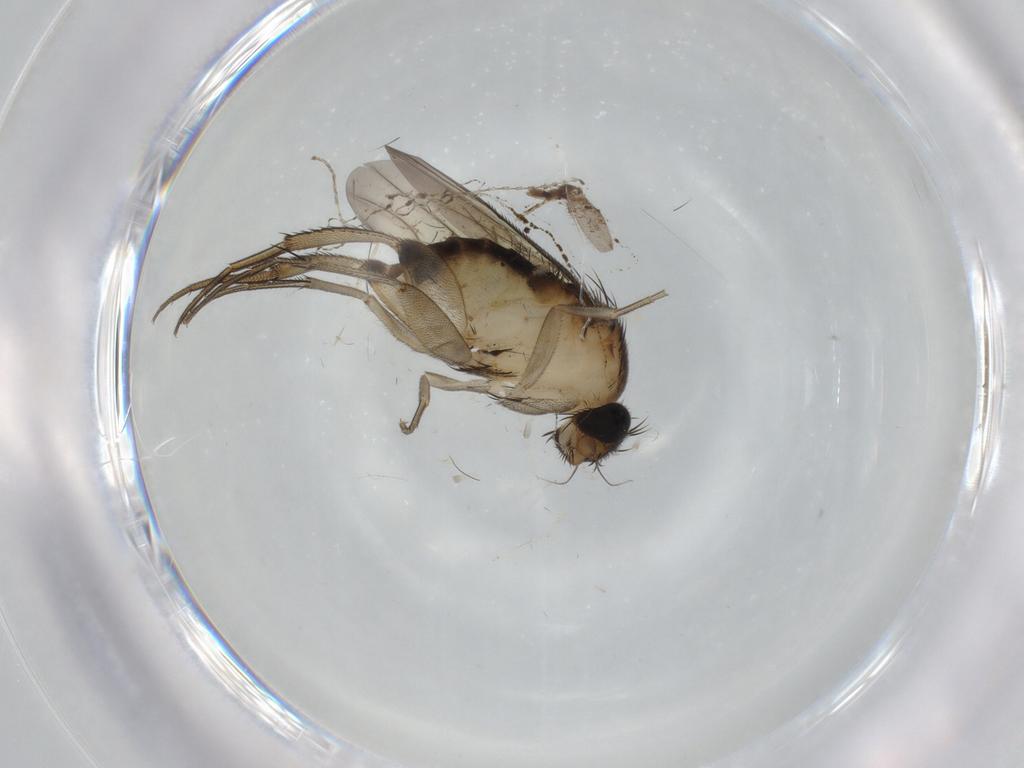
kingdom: Animalia
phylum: Arthropoda
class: Insecta
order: Diptera
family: Phoridae
